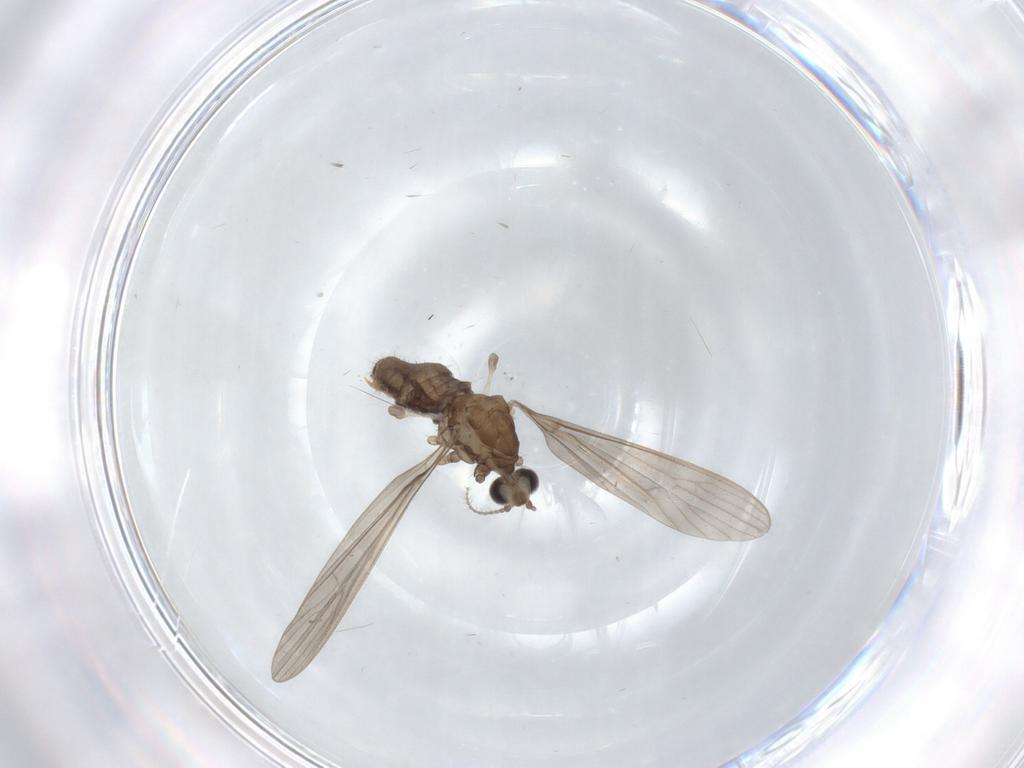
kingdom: Animalia
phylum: Arthropoda
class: Insecta
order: Diptera
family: Limoniidae
